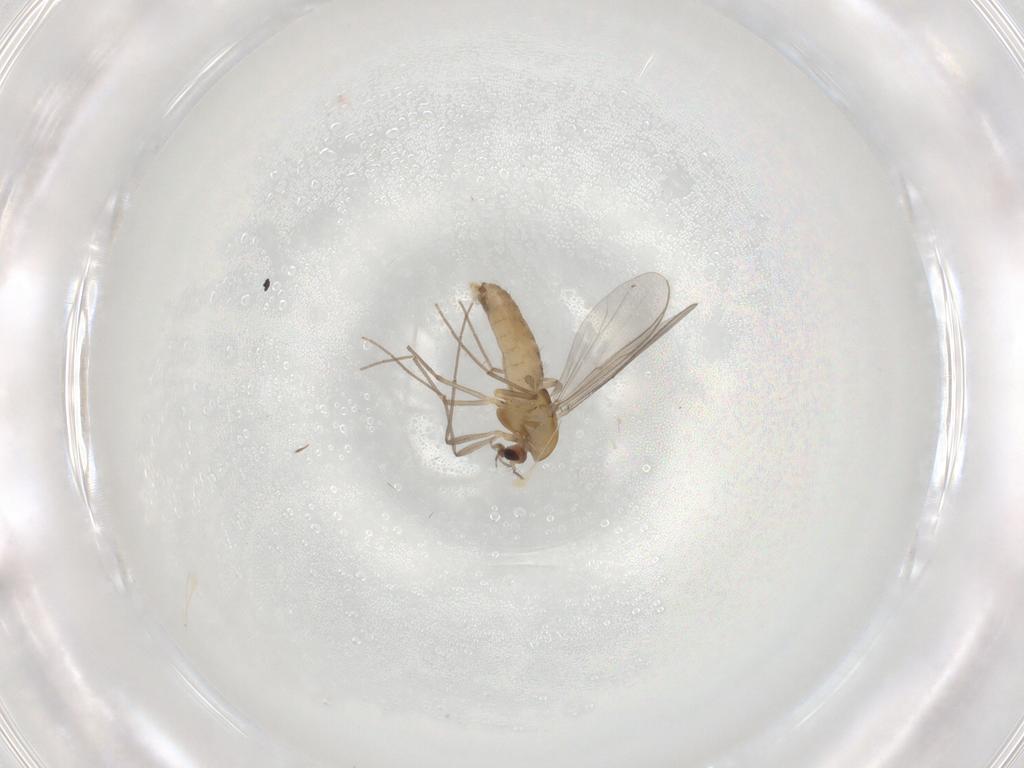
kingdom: Animalia
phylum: Arthropoda
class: Insecta
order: Diptera
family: Chironomidae
